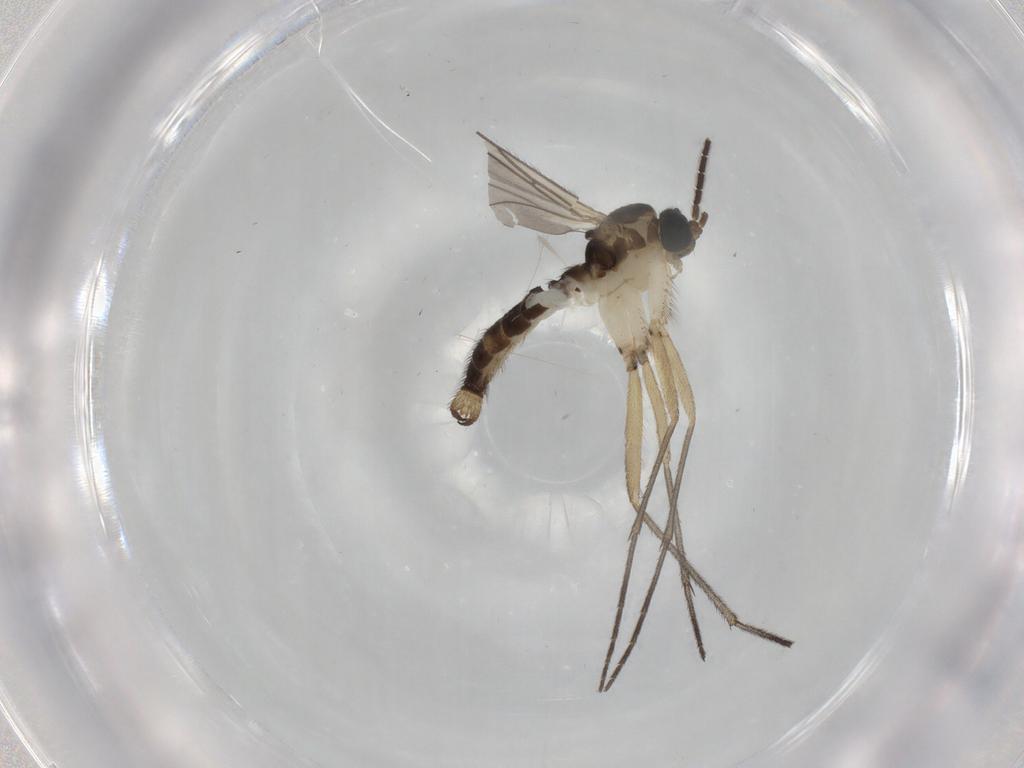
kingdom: Animalia
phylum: Arthropoda
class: Insecta
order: Diptera
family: Sciaridae
